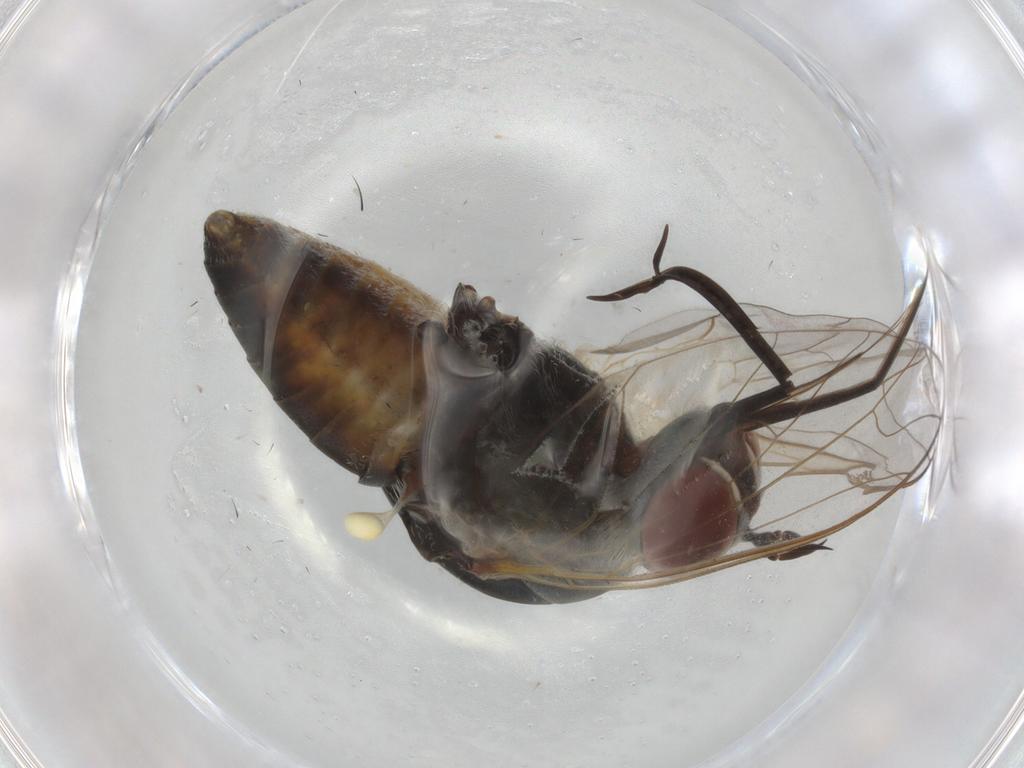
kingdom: Animalia
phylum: Arthropoda
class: Insecta
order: Diptera
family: Bombyliidae
